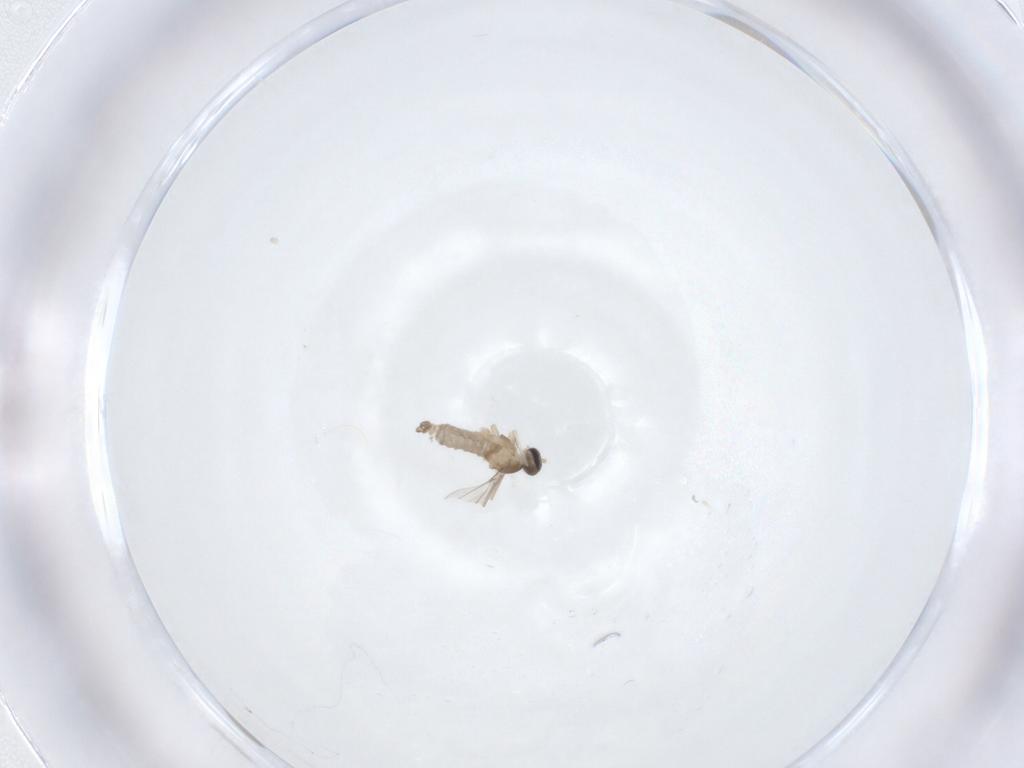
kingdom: Animalia
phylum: Arthropoda
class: Insecta
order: Diptera
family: Cecidomyiidae
